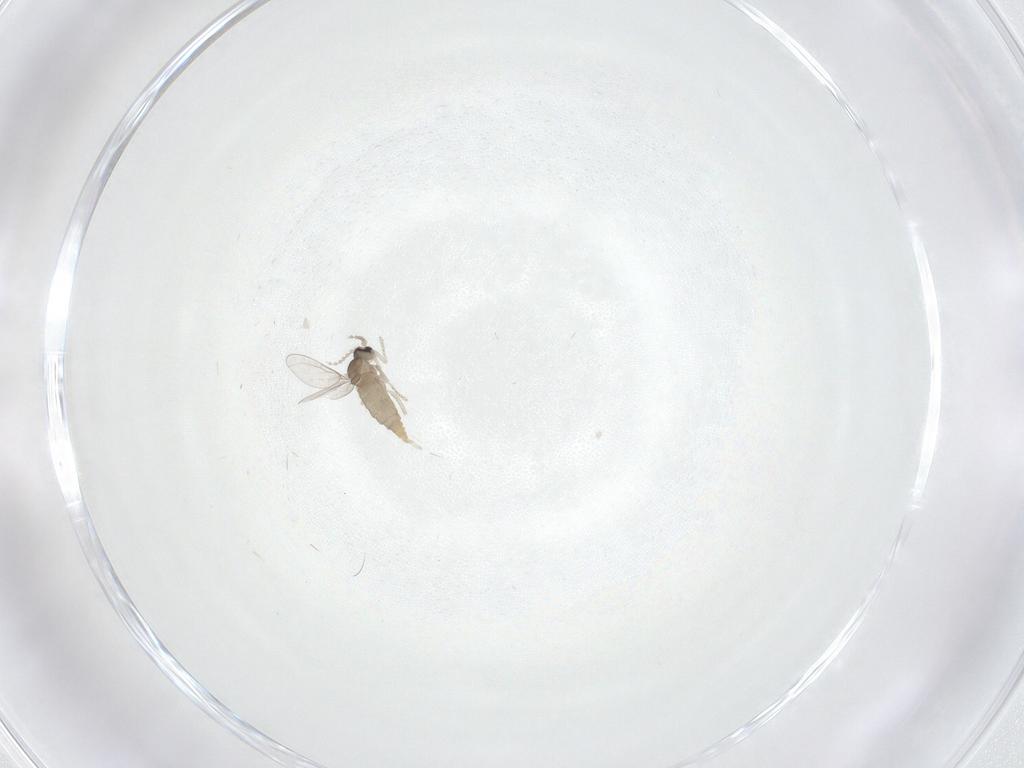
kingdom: Animalia
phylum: Arthropoda
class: Insecta
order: Diptera
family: Cecidomyiidae
